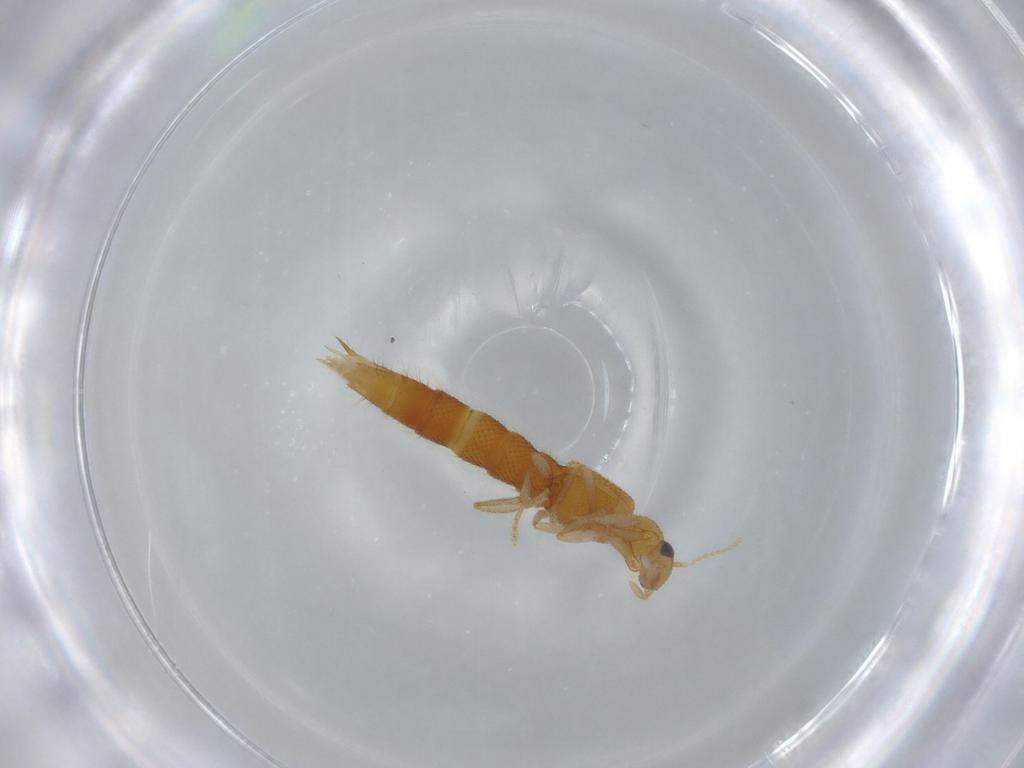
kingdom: Animalia
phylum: Arthropoda
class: Insecta
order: Coleoptera
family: Staphylinidae
